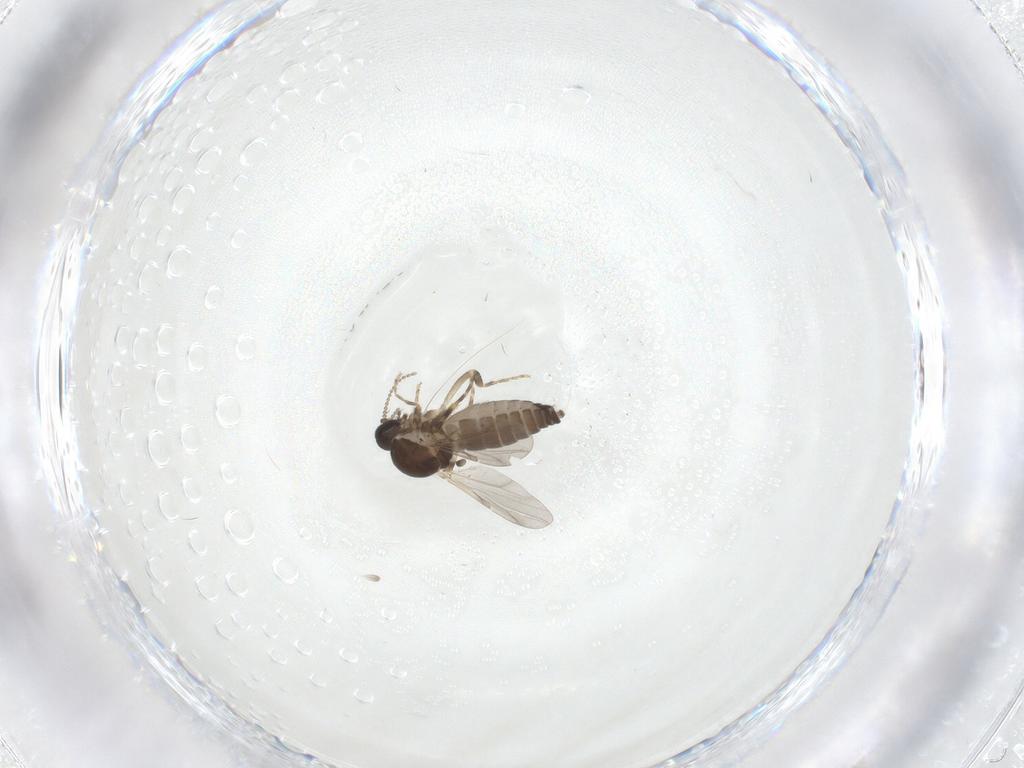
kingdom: Animalia
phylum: Arthropoda
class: Insecta
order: Diptera
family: Ceratopogonidae
